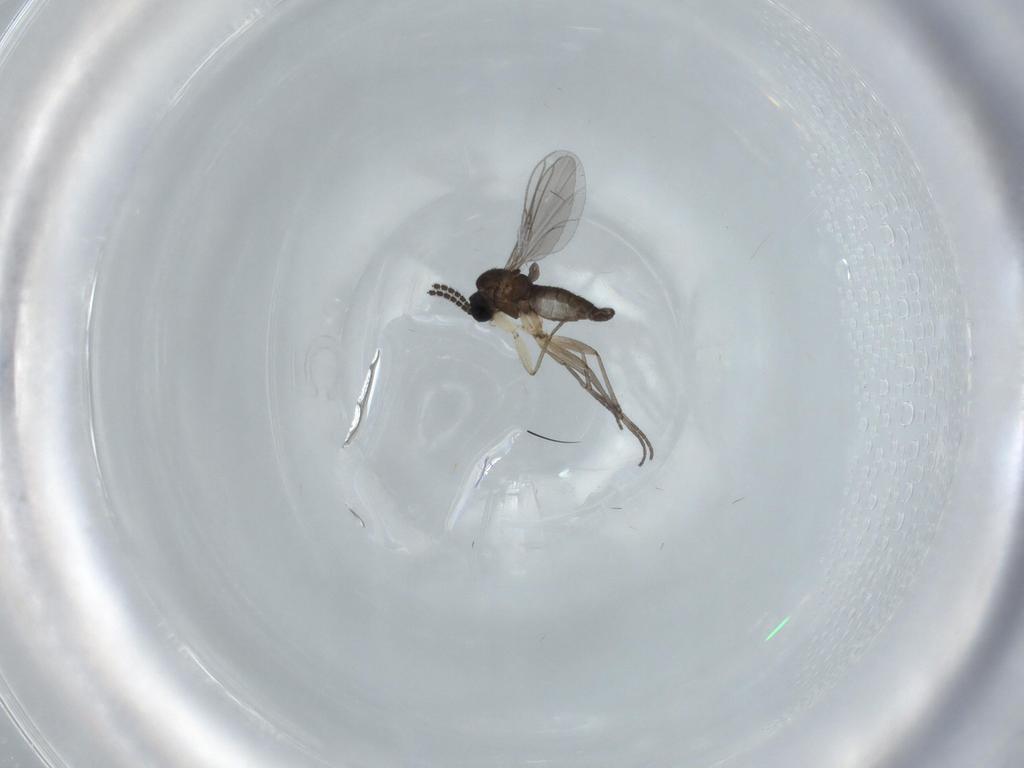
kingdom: Animalia
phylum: Arthropoda
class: Insecta
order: Diptera
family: Sciaridae
